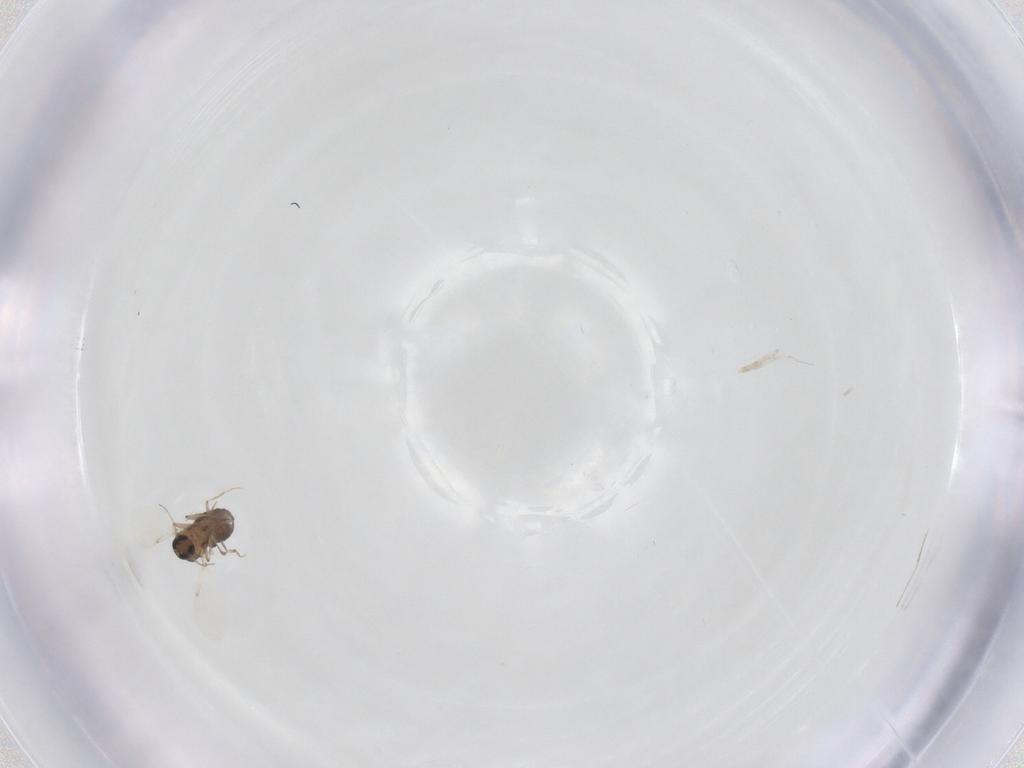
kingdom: Animalia
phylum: Arthropoda
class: Insecta
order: Diptera
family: Ceratopogonidae
